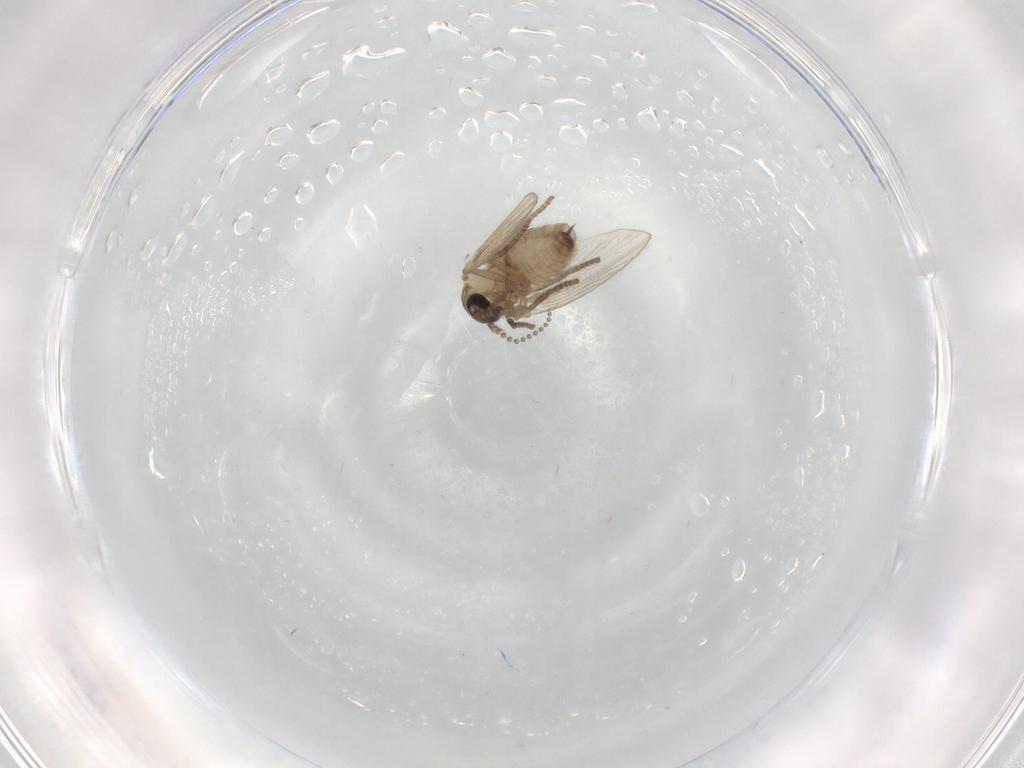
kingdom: Animalia
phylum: Arthropoda
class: Insecta
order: Diptera
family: Psychodidae
